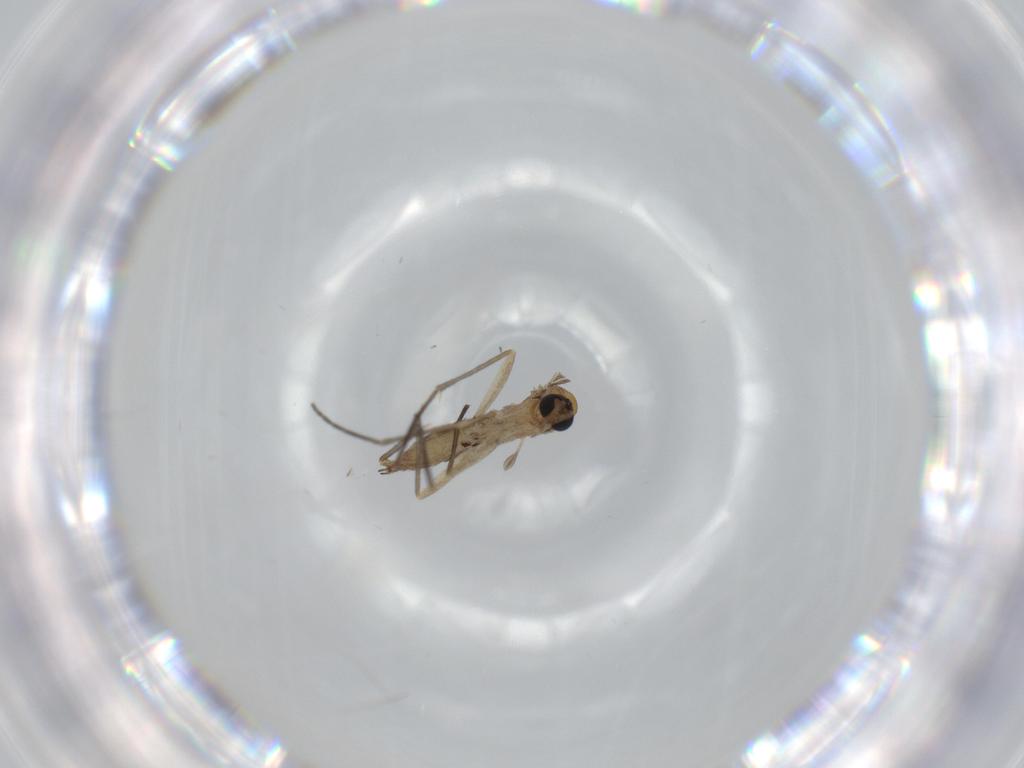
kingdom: Animalia
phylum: Arthropoda
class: Insecta
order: Diptera
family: Sciaridae
